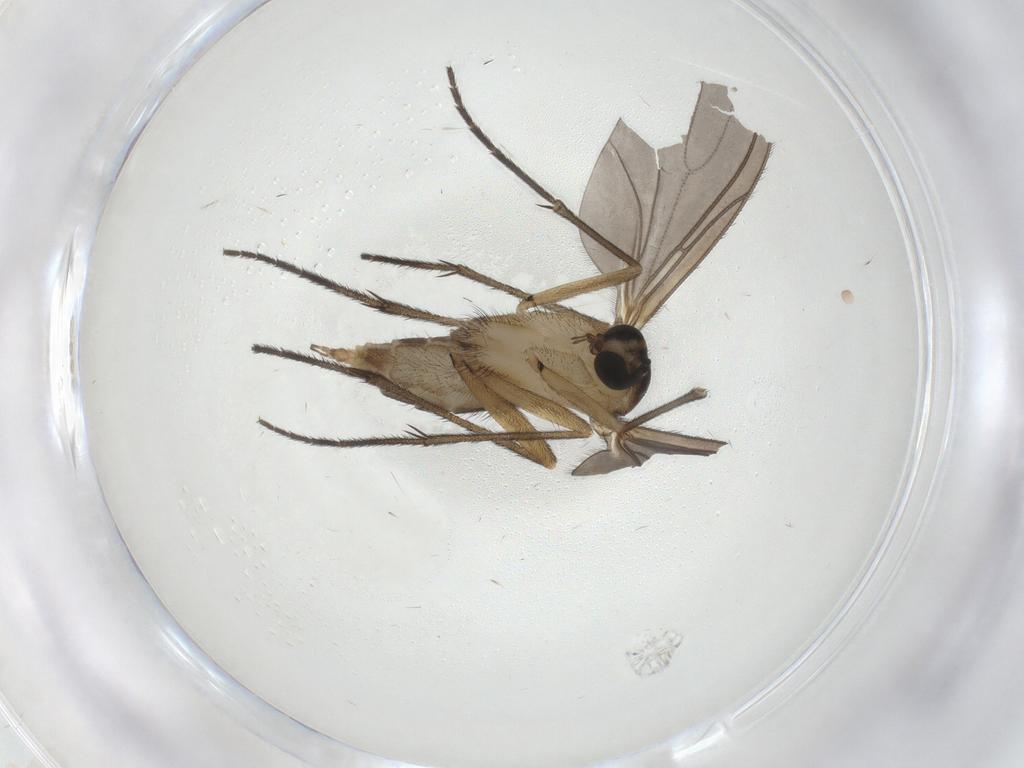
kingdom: Animalia
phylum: Arthropoda
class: Insecta
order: Diptera
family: Sciaridae
